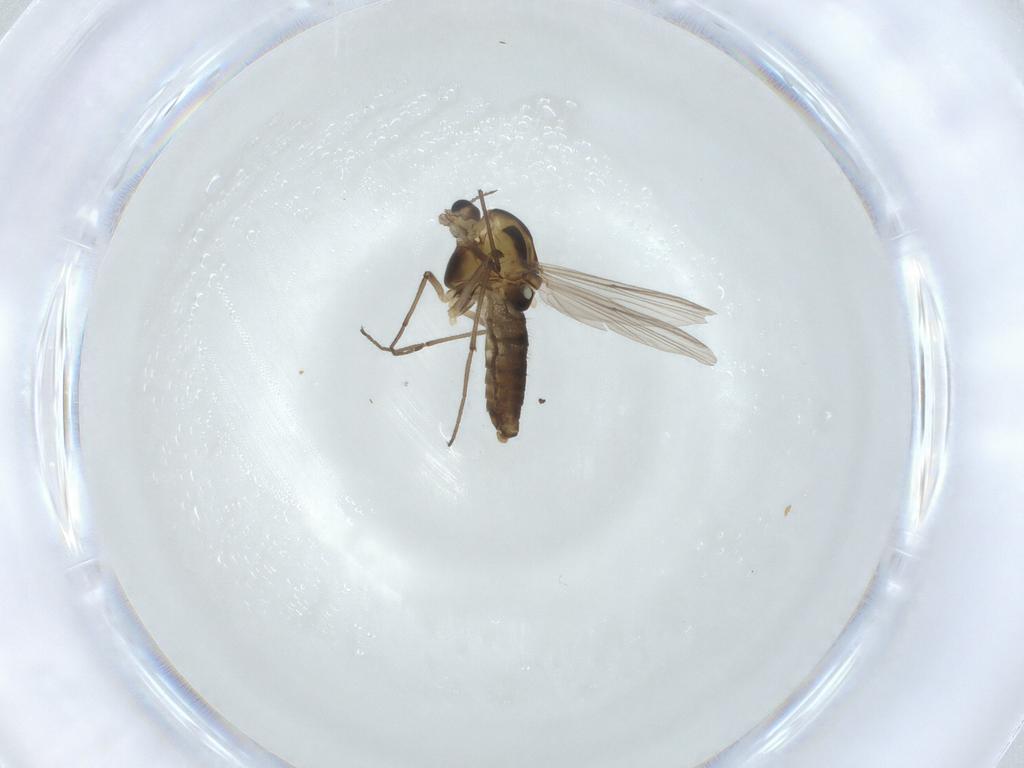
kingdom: Animalia
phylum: Arthropoda
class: Insecta
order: Diptera
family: Chironomidae
